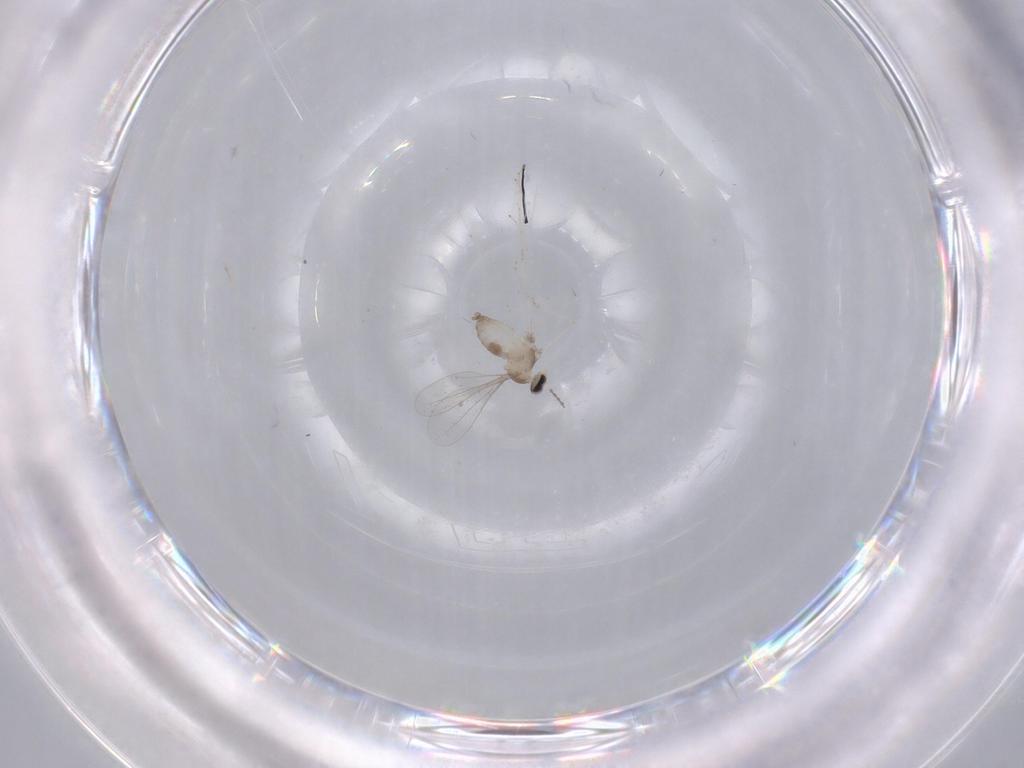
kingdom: Animalia
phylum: Arthropoda
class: Insecta
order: Diptera
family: Cecidomyiidae
